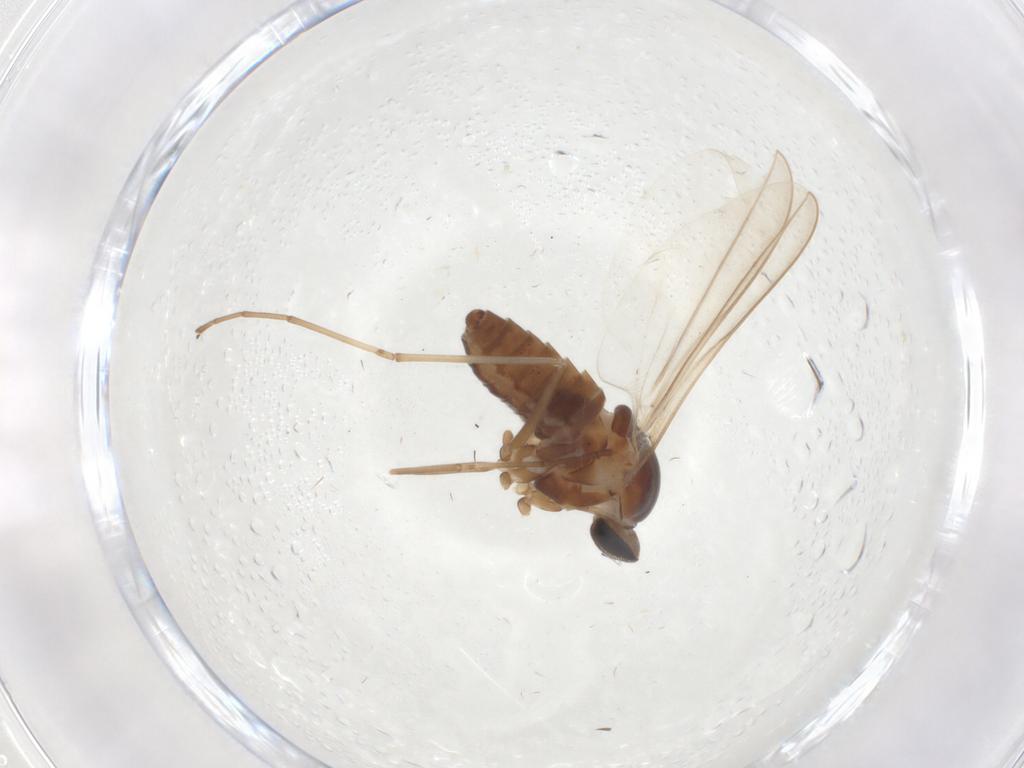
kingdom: Animalia
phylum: Arthropoda
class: Insecta
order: Diptera
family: Cecidomyiidae
